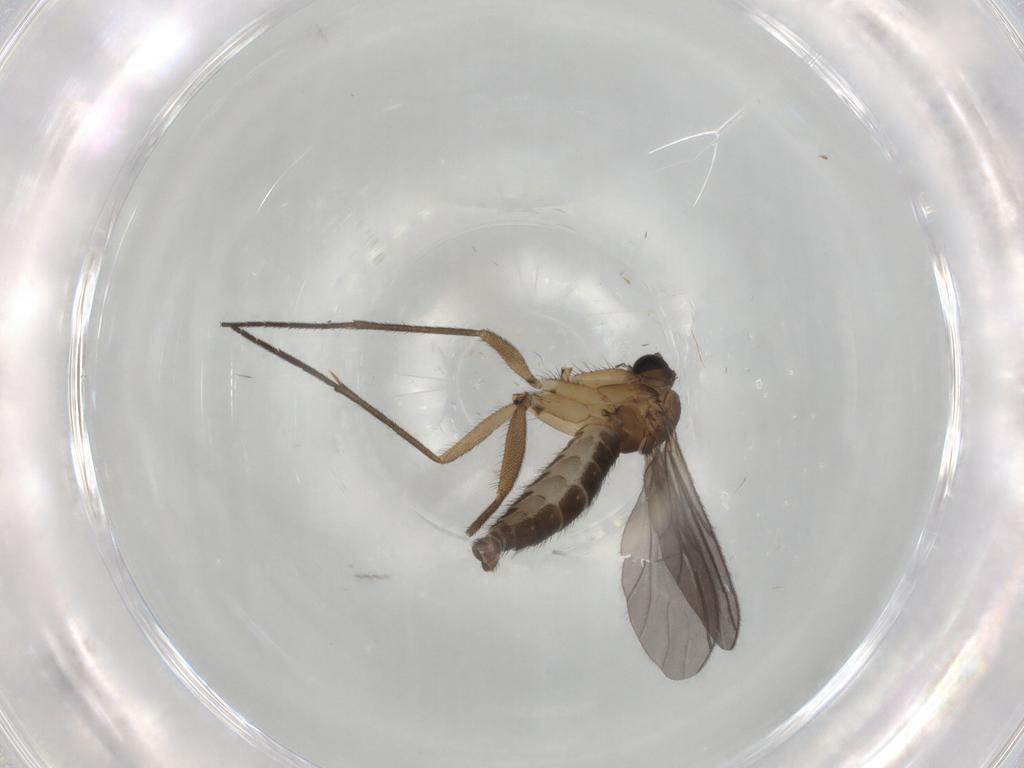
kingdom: Animalia
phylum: Arthropoda
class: Insecta
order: Diptera
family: Sciaridae
